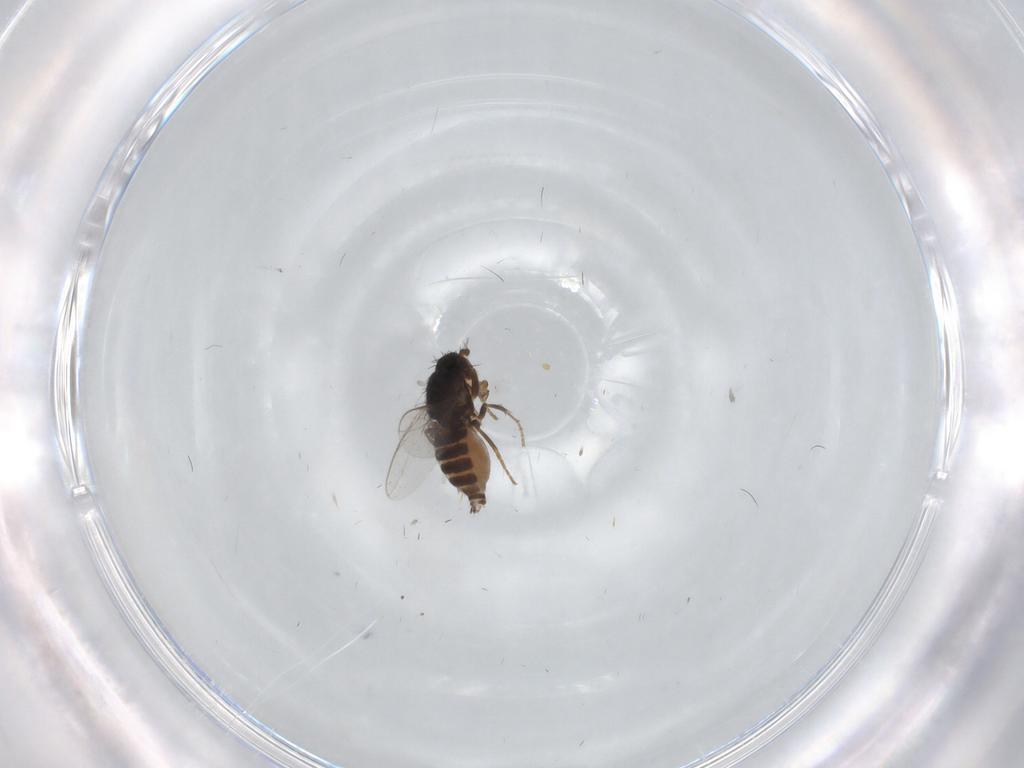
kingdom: Animalia
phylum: Arthropoda
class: Insecta
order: Diptera
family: Sphaeroceridae
